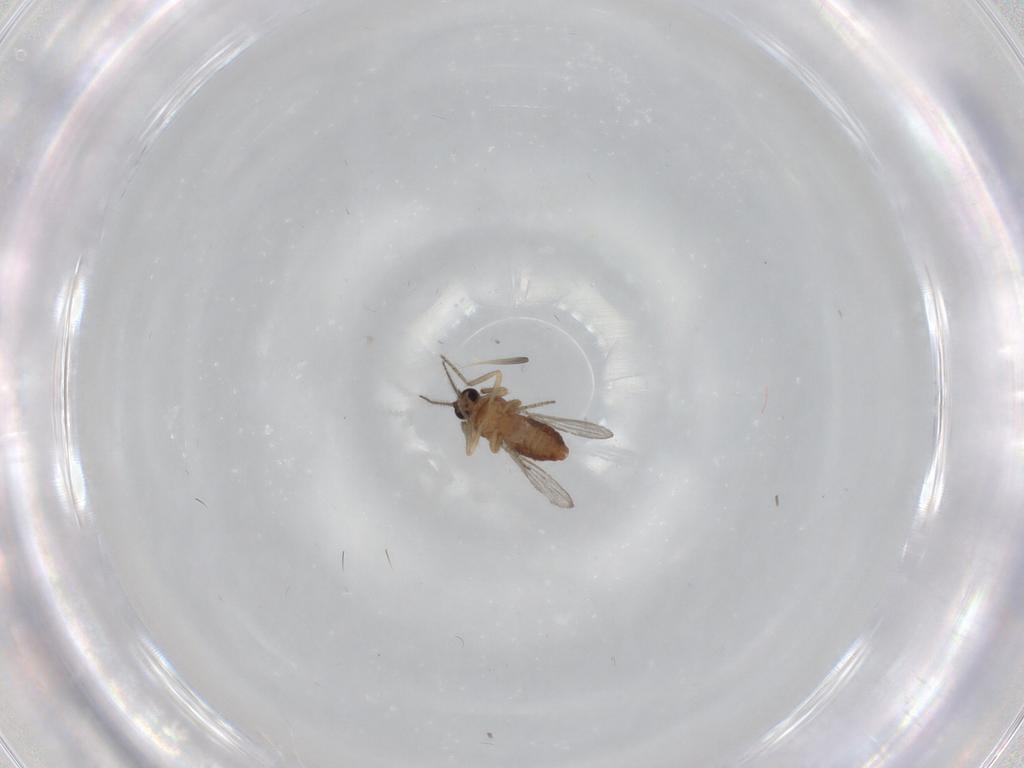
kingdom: Animalia
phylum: Arthropoda
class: Insecta
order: Diptera
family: Ceratopogonidae
